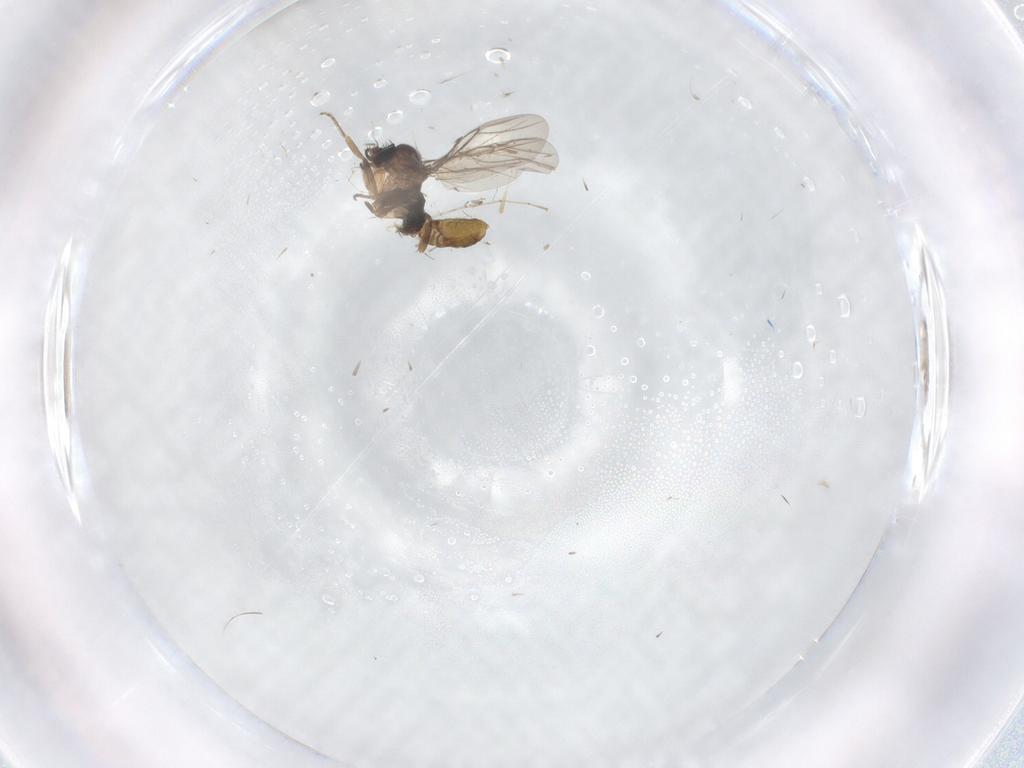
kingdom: Animalia
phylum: Arthropoda
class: Insecta
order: Diptera
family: Chironomidae
